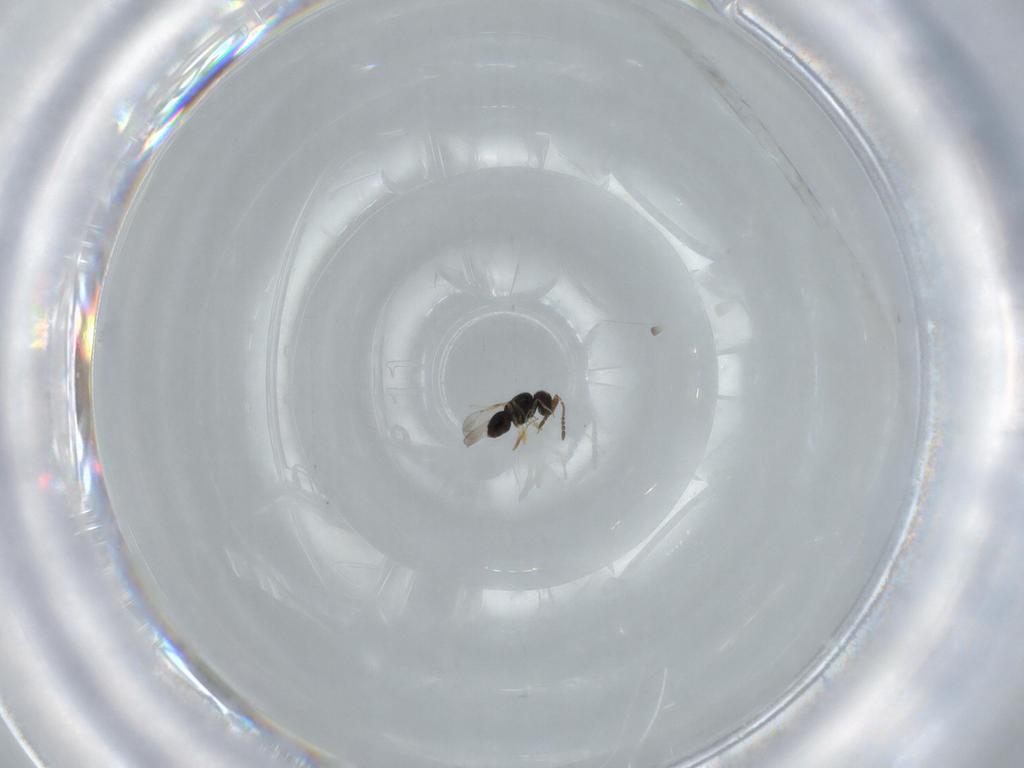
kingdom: Animalia
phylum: Arthropoda
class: Insecta
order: Hymenoptera
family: Ceraphronidae
